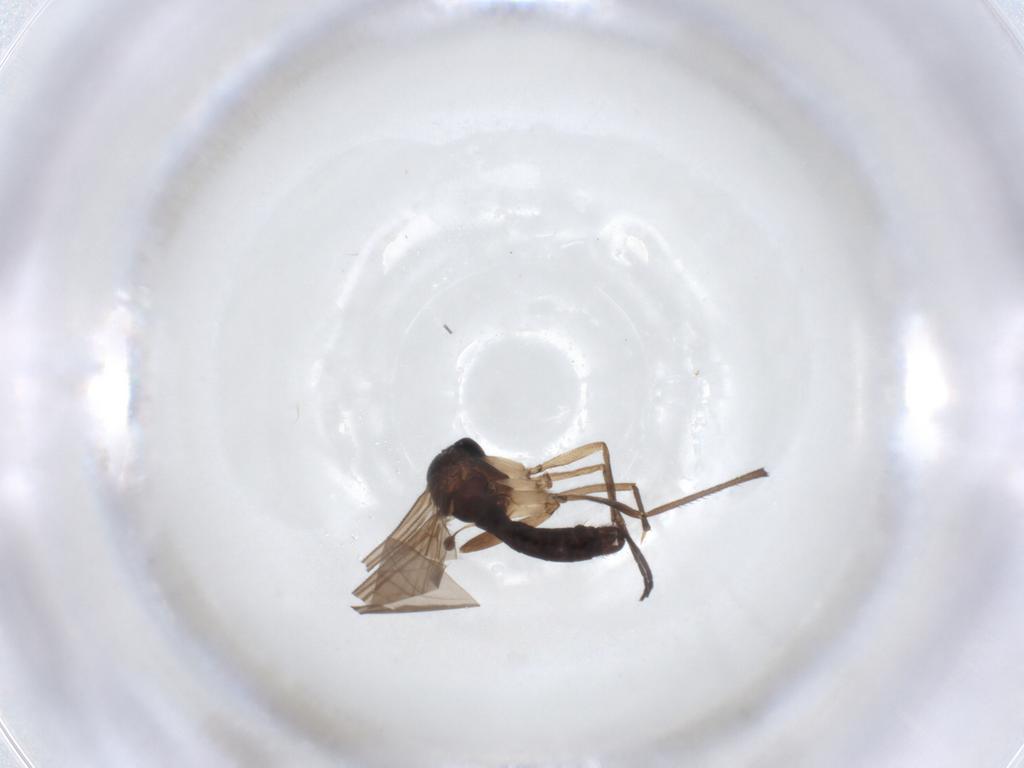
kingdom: Animalia
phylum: Arthropoda
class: Insecta
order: Diptera
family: Sciaridae
